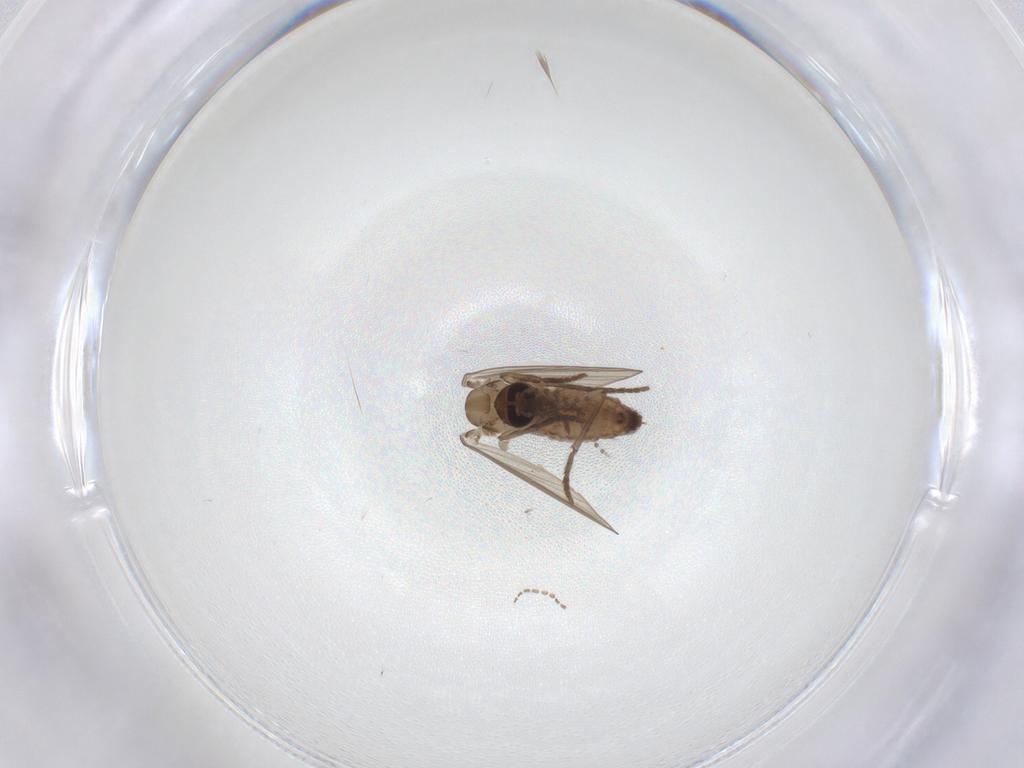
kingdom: Animalia
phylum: Arthropoda
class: Insecta
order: Diptera
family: Psychodidae
